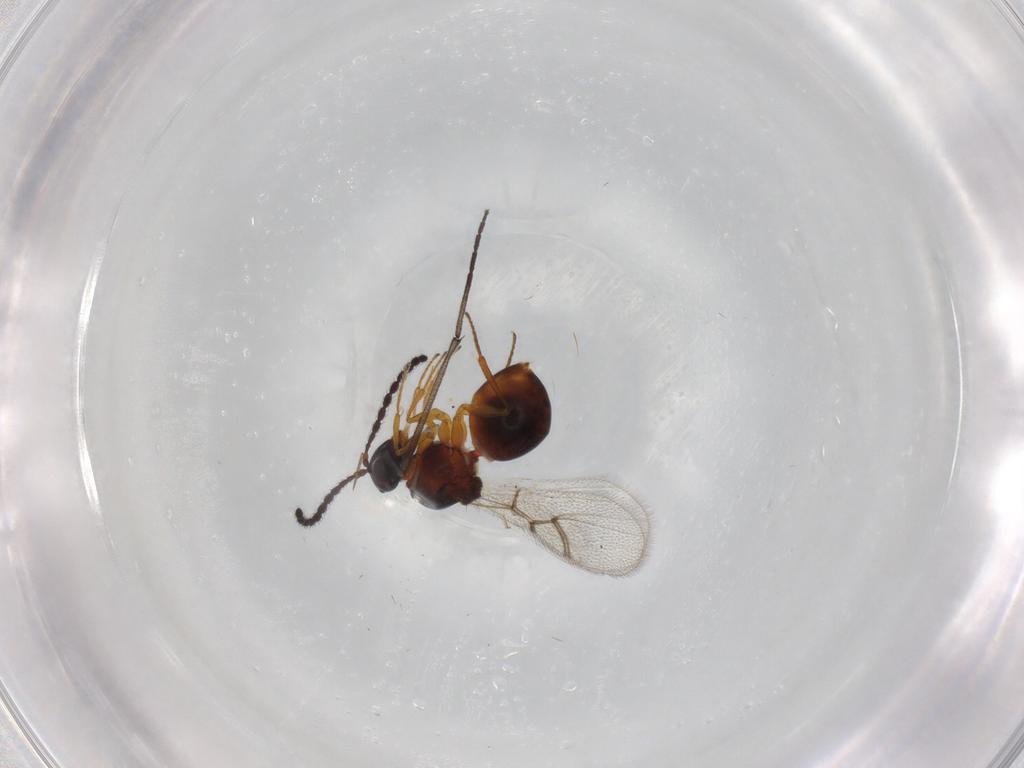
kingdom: Animalia
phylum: Arthropoda
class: Insecta
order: Hymenoptera
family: Figitidae
